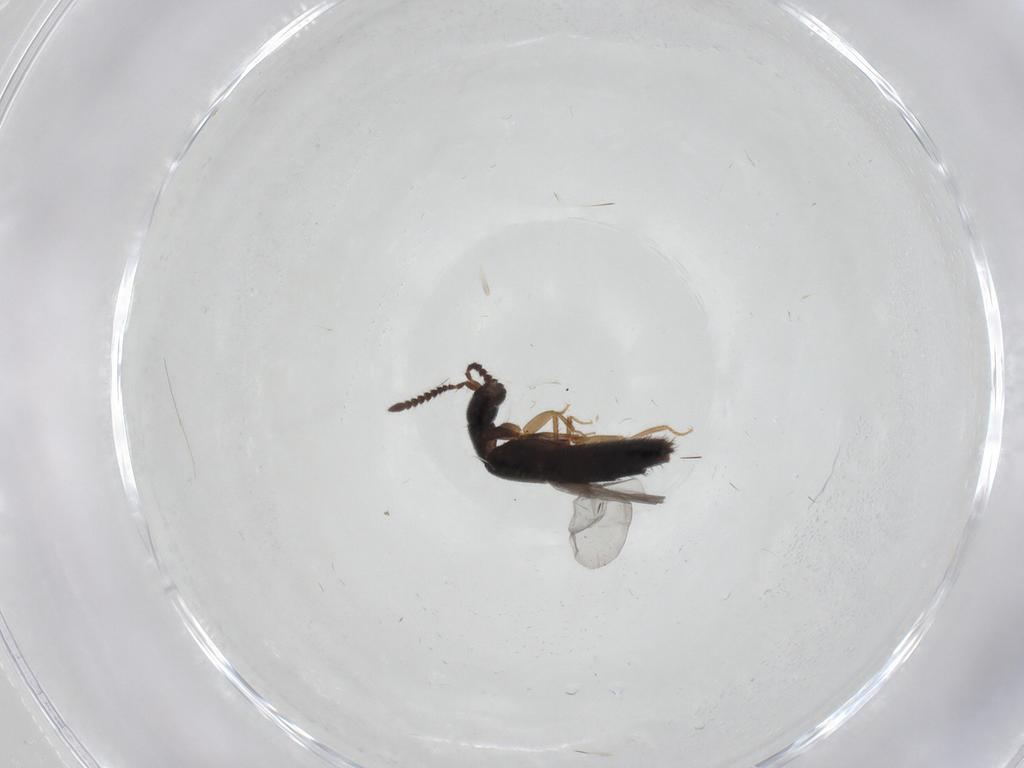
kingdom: Animalia
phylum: Arthropoda
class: Insecta
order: Coleoptera
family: Staphylinidae
